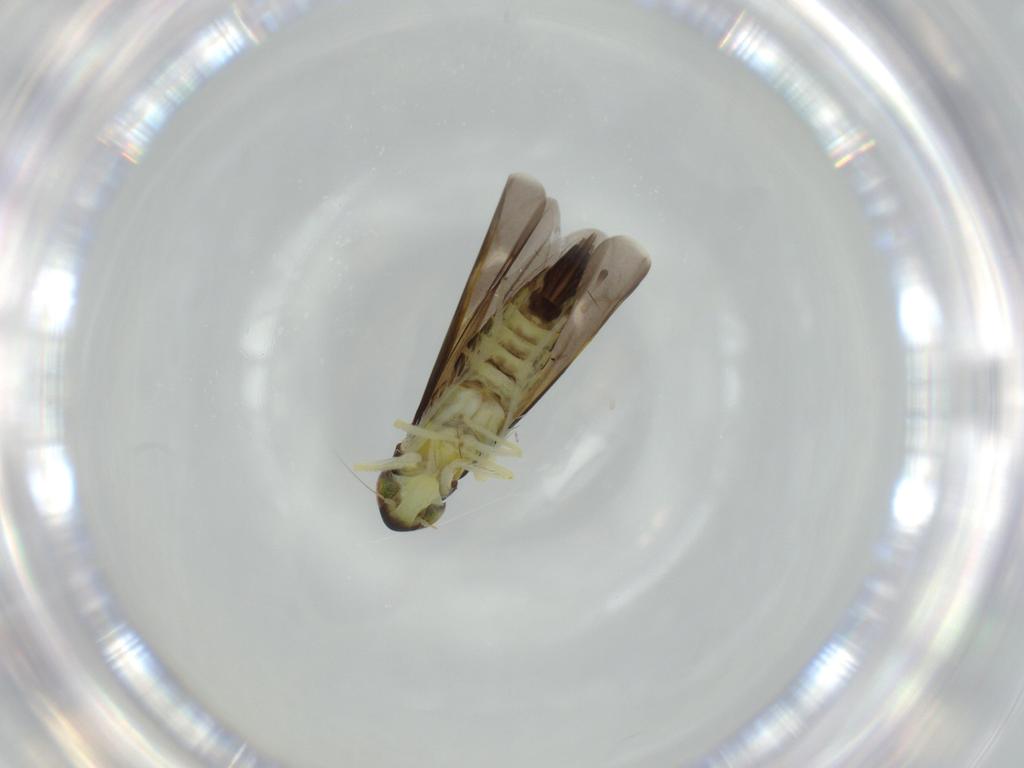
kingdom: Animalia
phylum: Arthropoda
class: Insecta
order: Hemiptera
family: Cicadellidae
